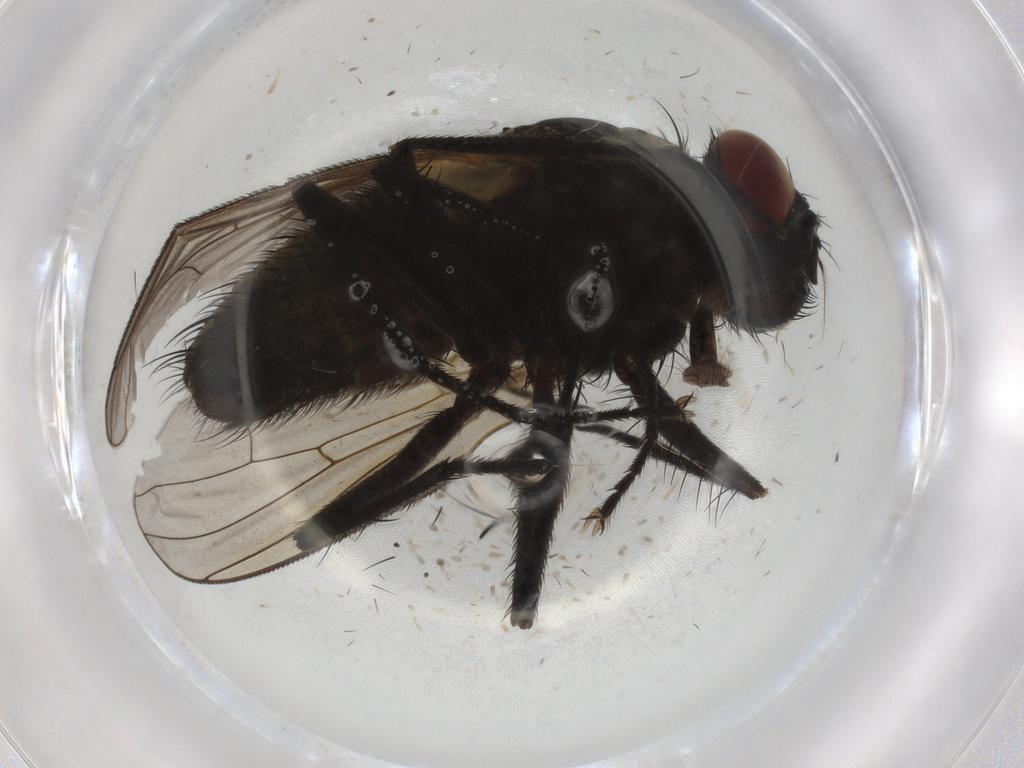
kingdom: Animalia
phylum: Arthropoda
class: Insecta
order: Diptera
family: Muscidae
